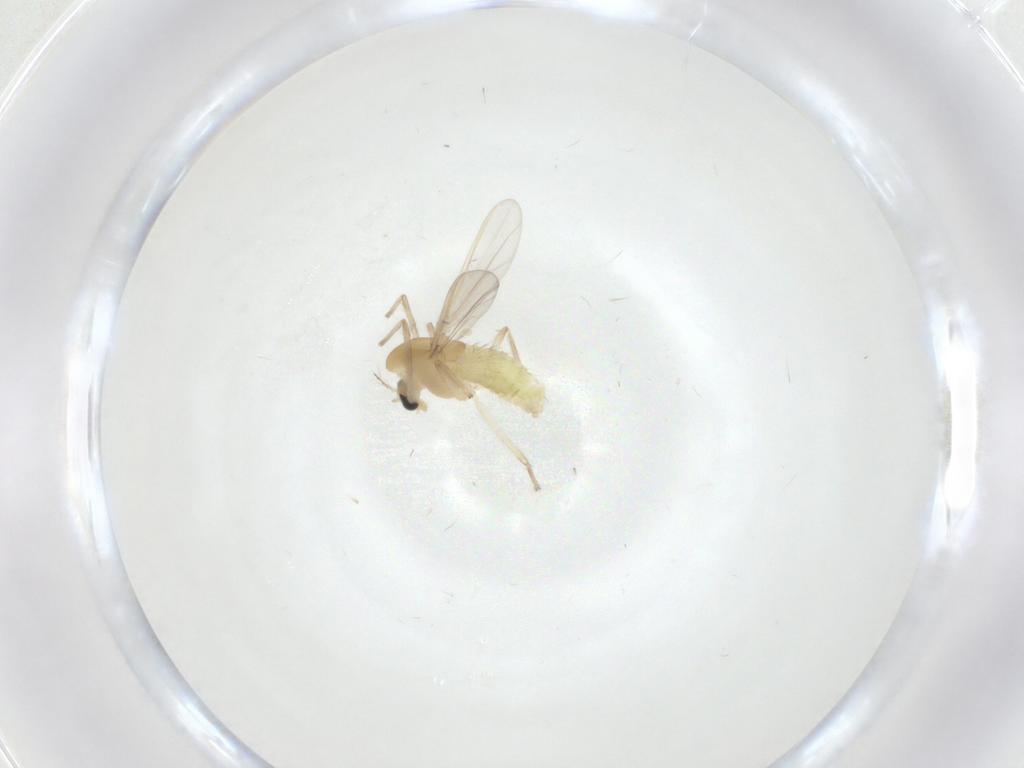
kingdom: Animalia
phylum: Arthropoda
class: Insecta
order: Diptera
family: Chironomidae
